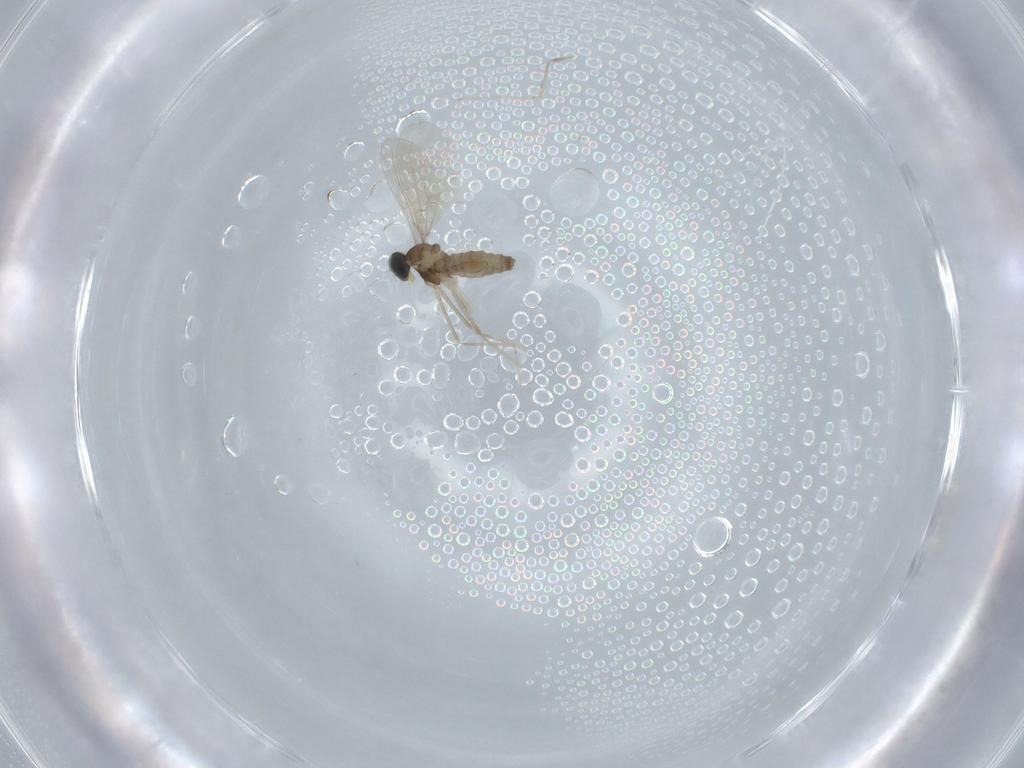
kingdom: Animalia
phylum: Arthropoda
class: Insecta
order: Diptera
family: Cecidomyiidae
